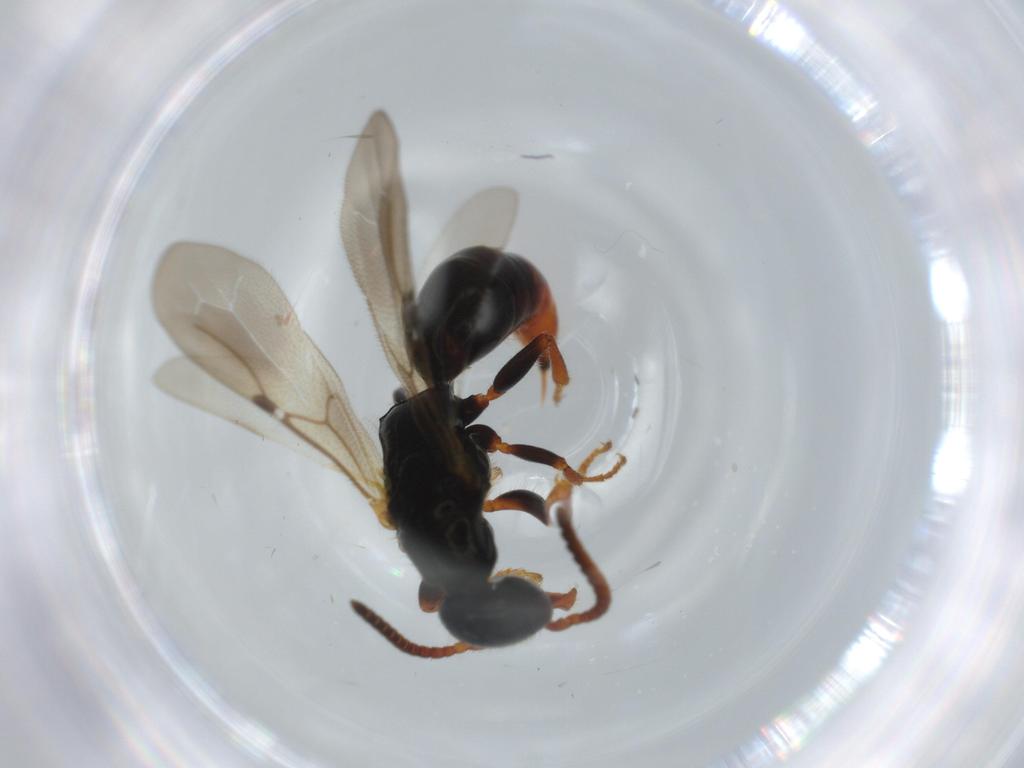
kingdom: Animalia
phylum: Arthropoda
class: Insecta
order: Hymenoptera
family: Bethylidae
